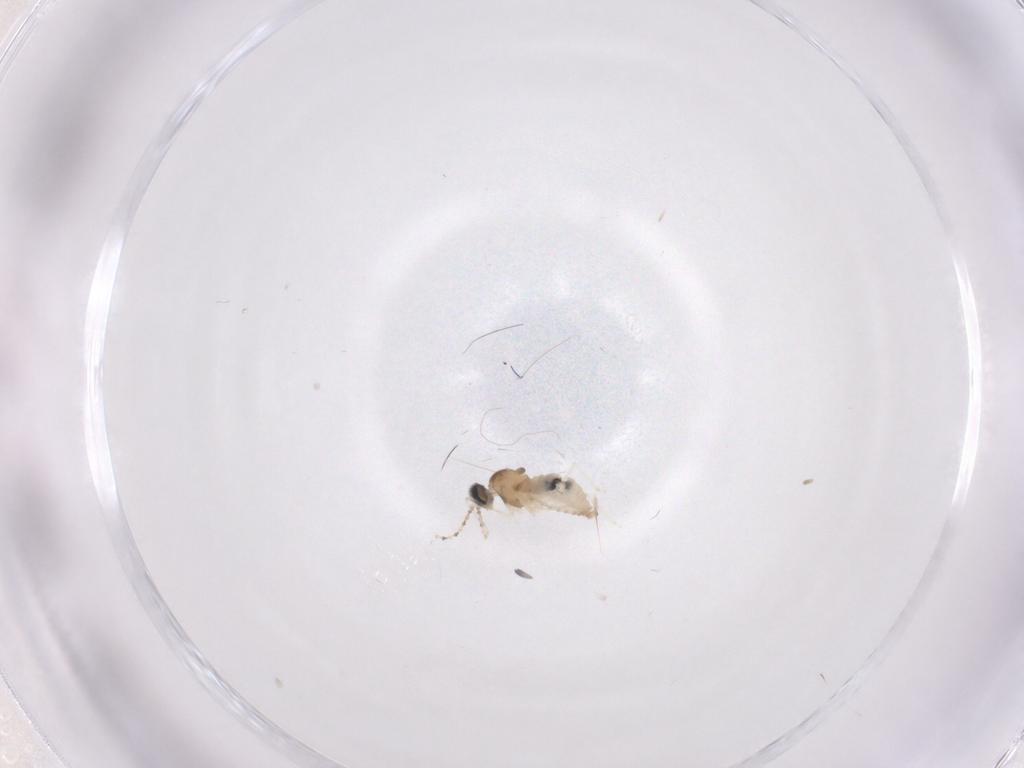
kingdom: Animalia
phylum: Arthropoda
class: Insecta
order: Diptera
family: Cecidomyiidae
